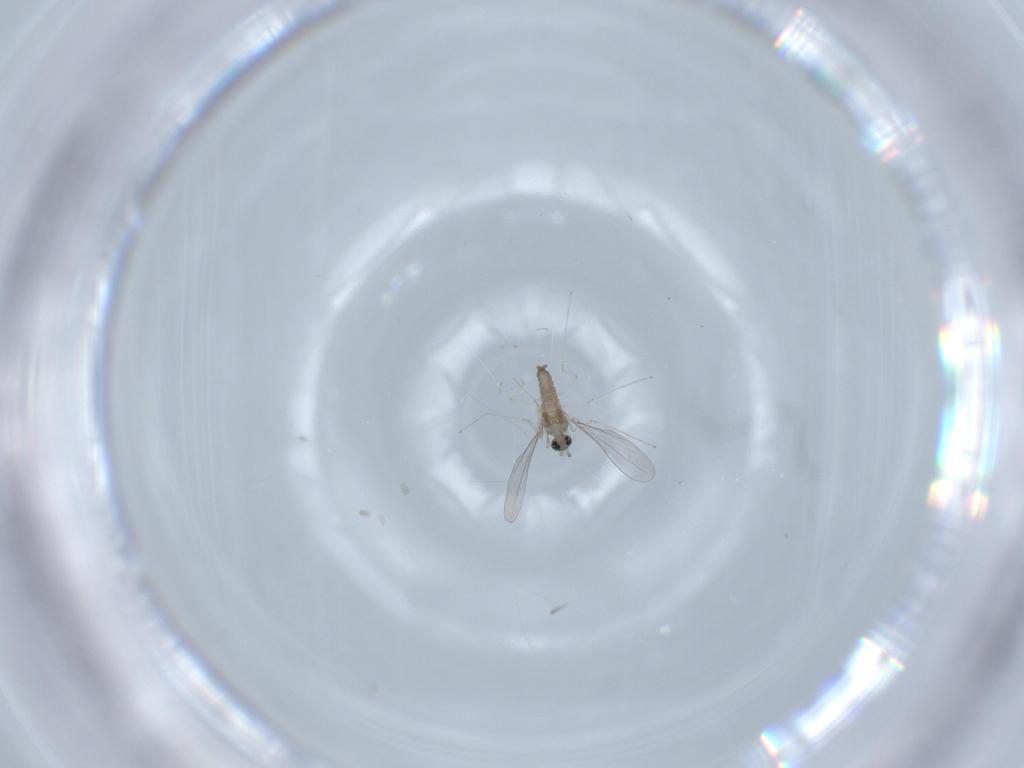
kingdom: Animalia
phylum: Arthropoda
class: Insecta
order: Diptera
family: Cecidomyiidae
